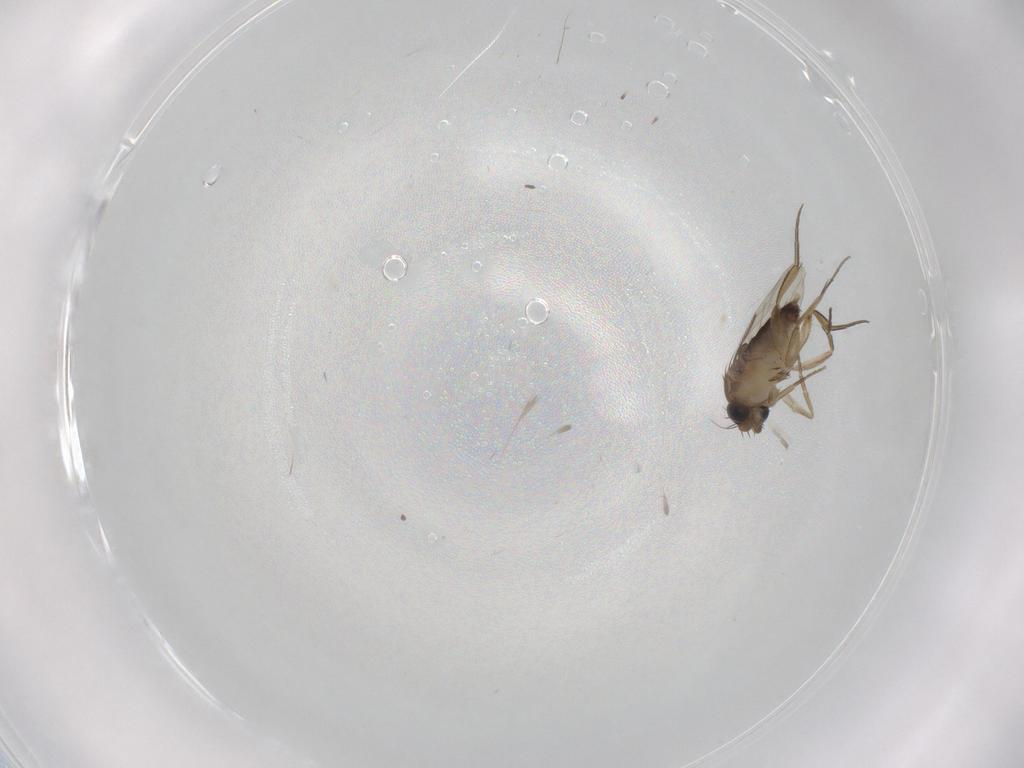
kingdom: Animalia
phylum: Arthropoda
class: Insecta
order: Diptera
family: Phoridae
